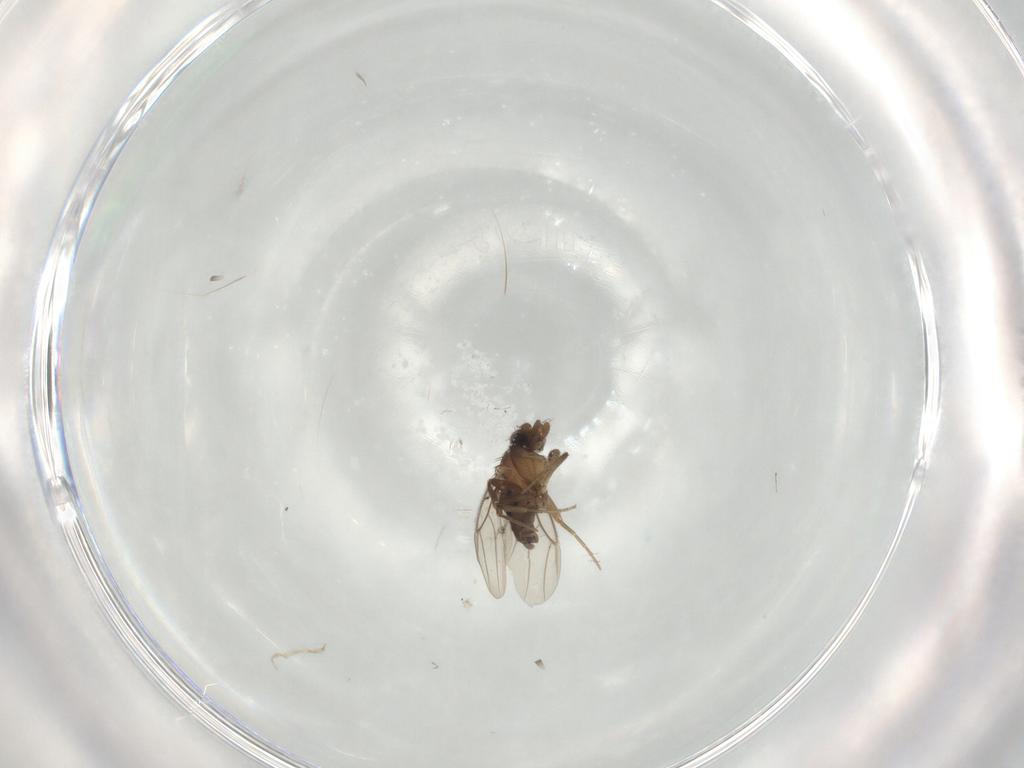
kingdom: Animalia
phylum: Arthropoda
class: Insecta
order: Diptera
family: Cecidomyiidae
